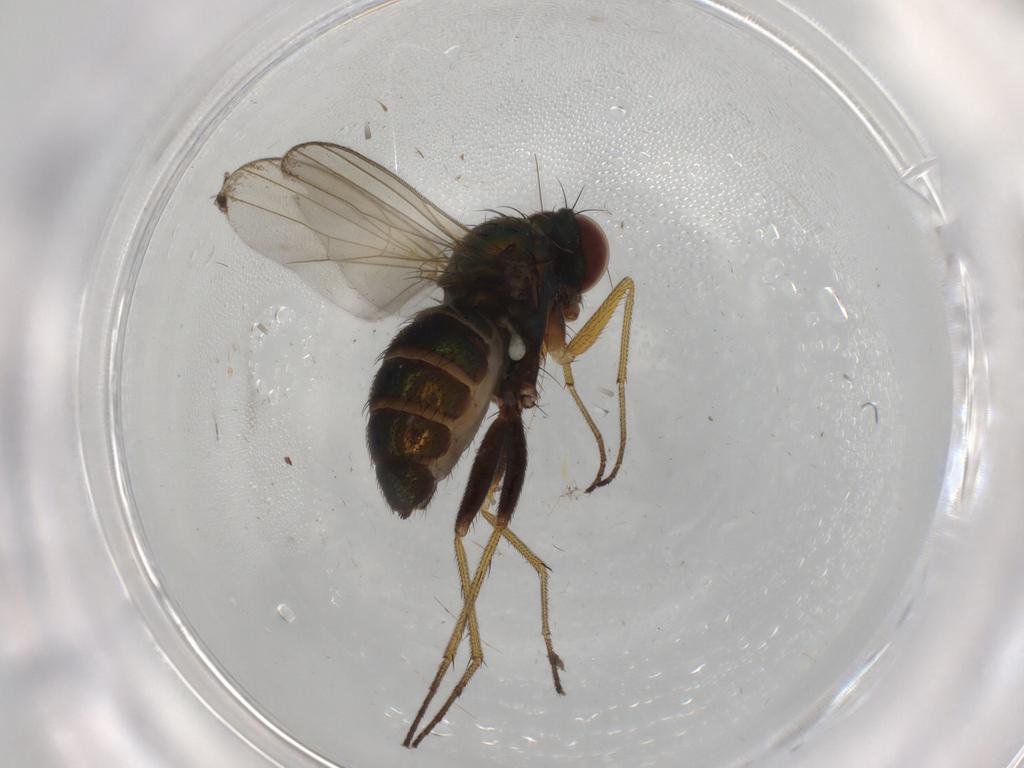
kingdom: Animalia
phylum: Arthropoda
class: Insecta
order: Diptera
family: Dolichopodidae
